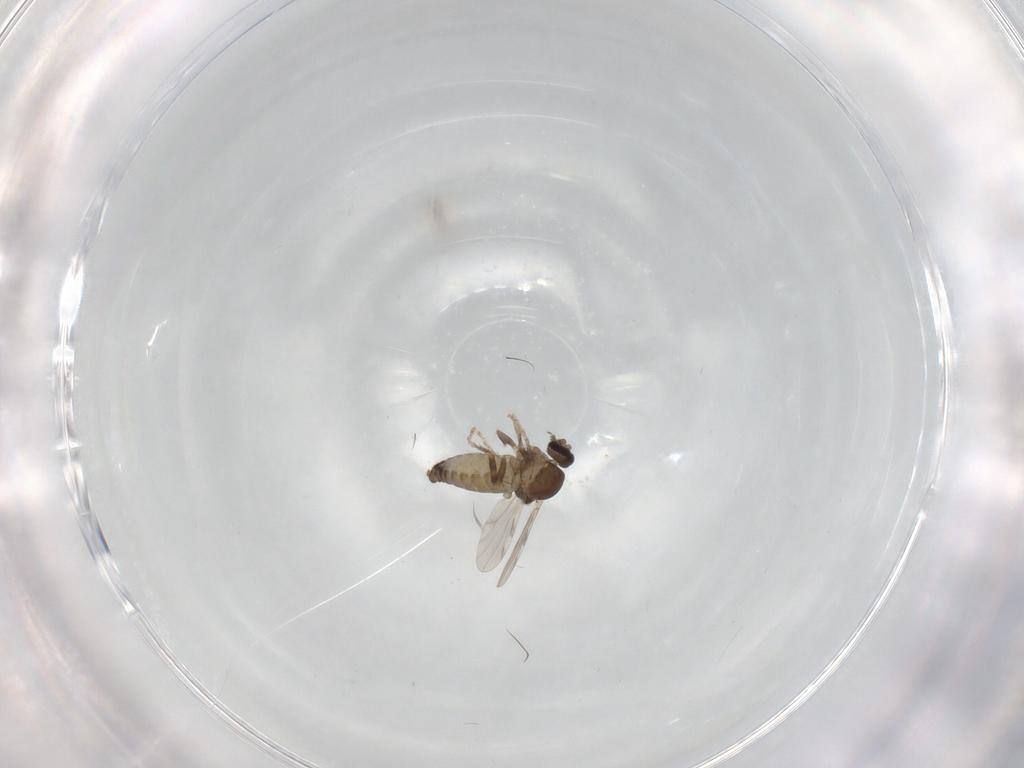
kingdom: Animalia
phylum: Arthropoda
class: Insecta
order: Diptera
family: Ceratopogonidae
